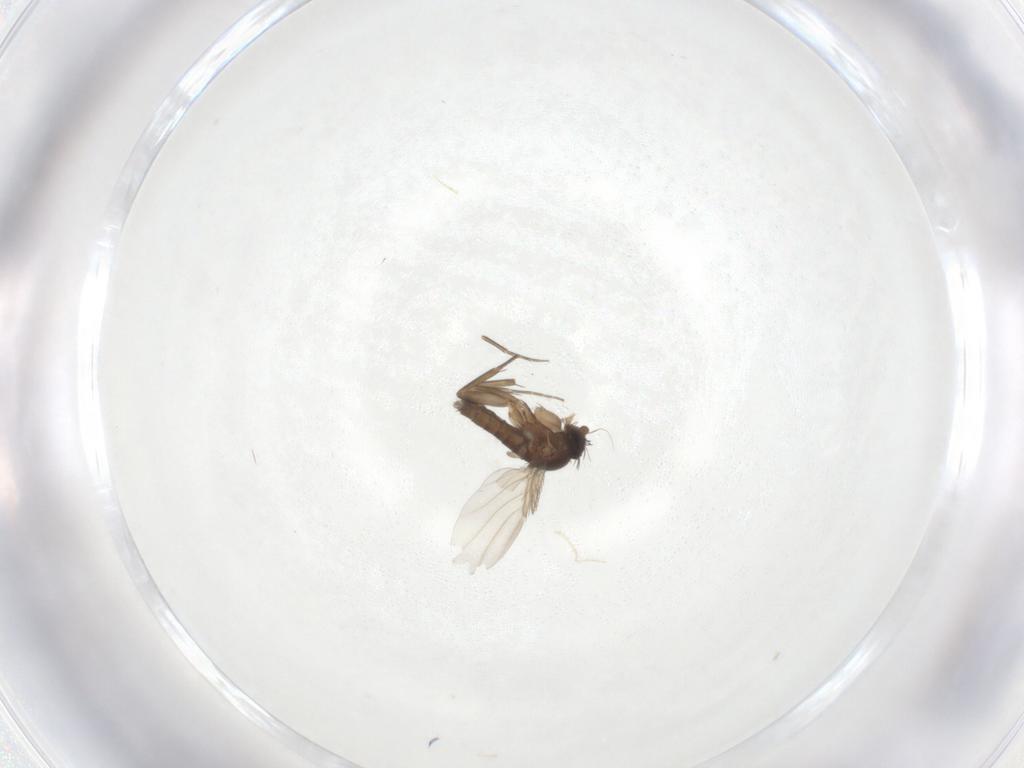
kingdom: Animalia
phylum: Arthropoda
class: Insecta
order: Diptera
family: Phoridae
